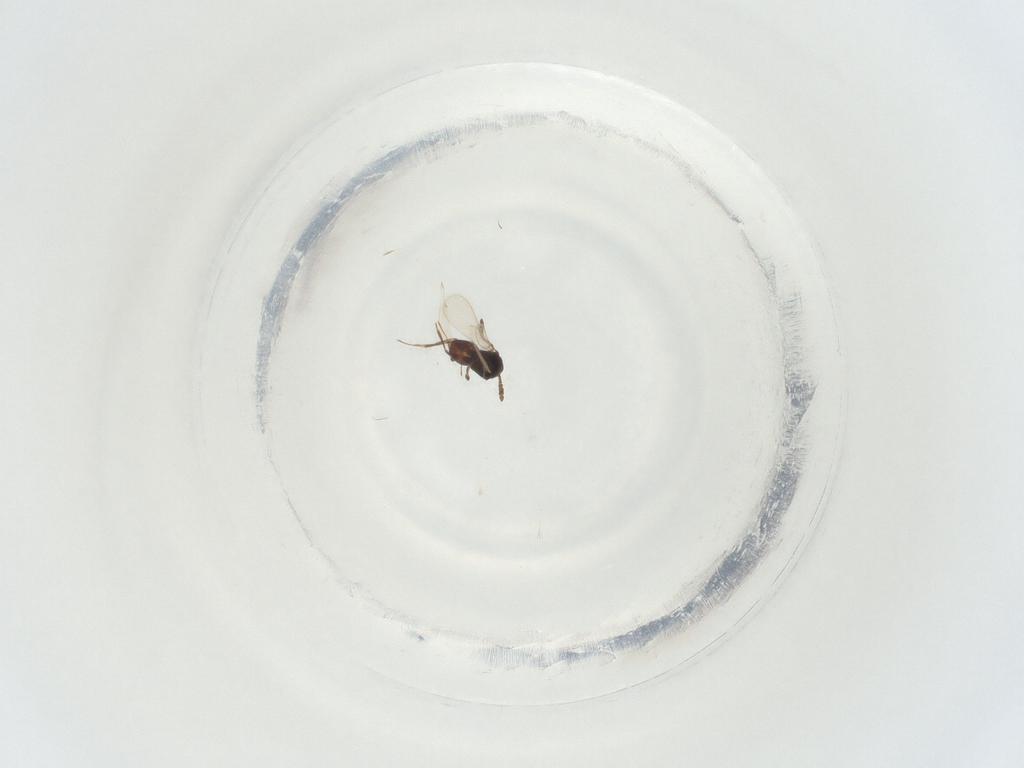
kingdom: Animalia
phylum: Arthropoda
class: Insecta
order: Hymenoptera
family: Scelionidae
